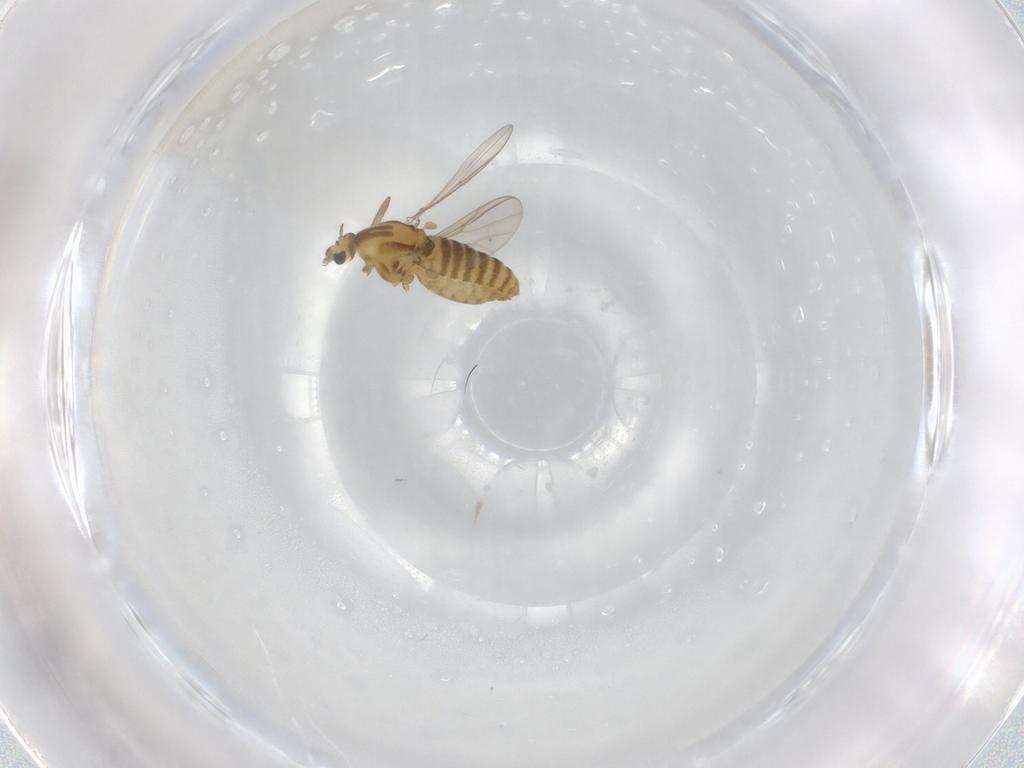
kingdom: Animalia
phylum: Arthropoda
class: Insecta
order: Diptera
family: Chironomidae
